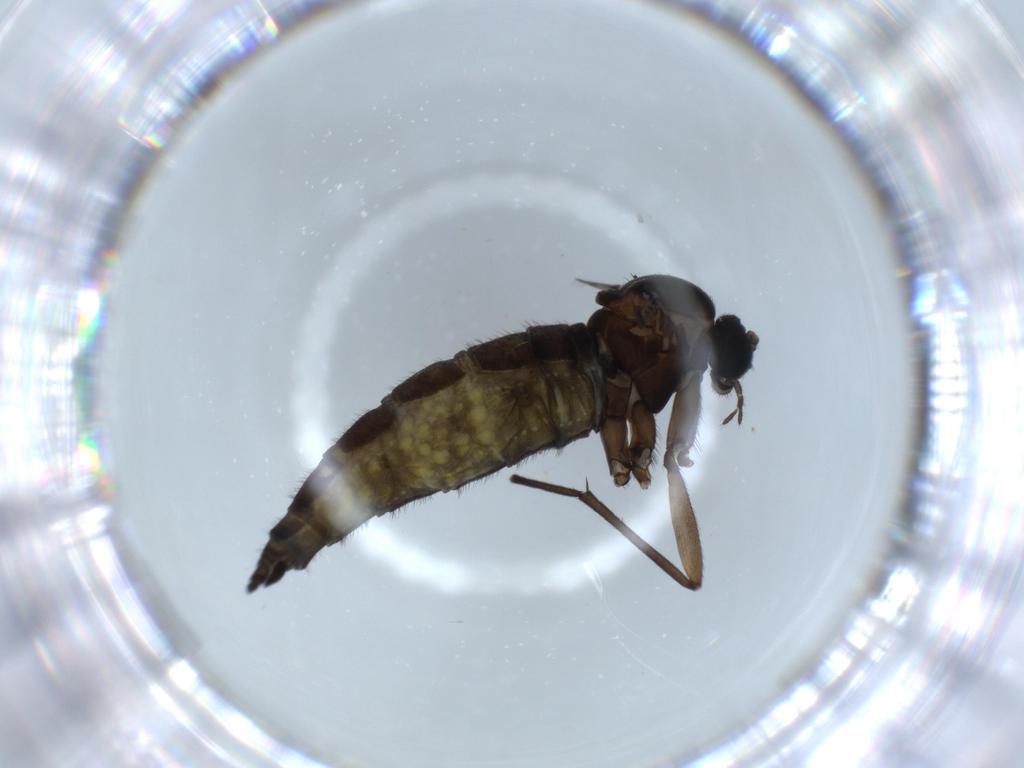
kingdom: Animalia
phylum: Arthropoda
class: Insecta
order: Diptera
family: Sciaridae
